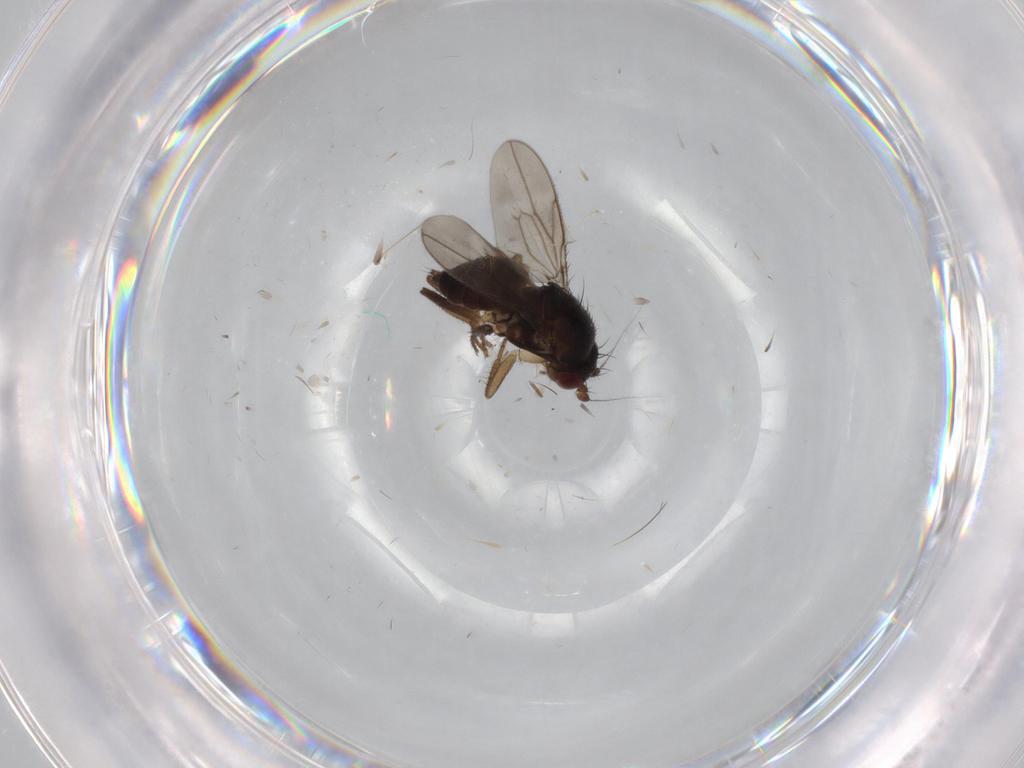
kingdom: Animalia
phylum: Arthropoda
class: Insecta
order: Diptera
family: Sphaeroceridae
